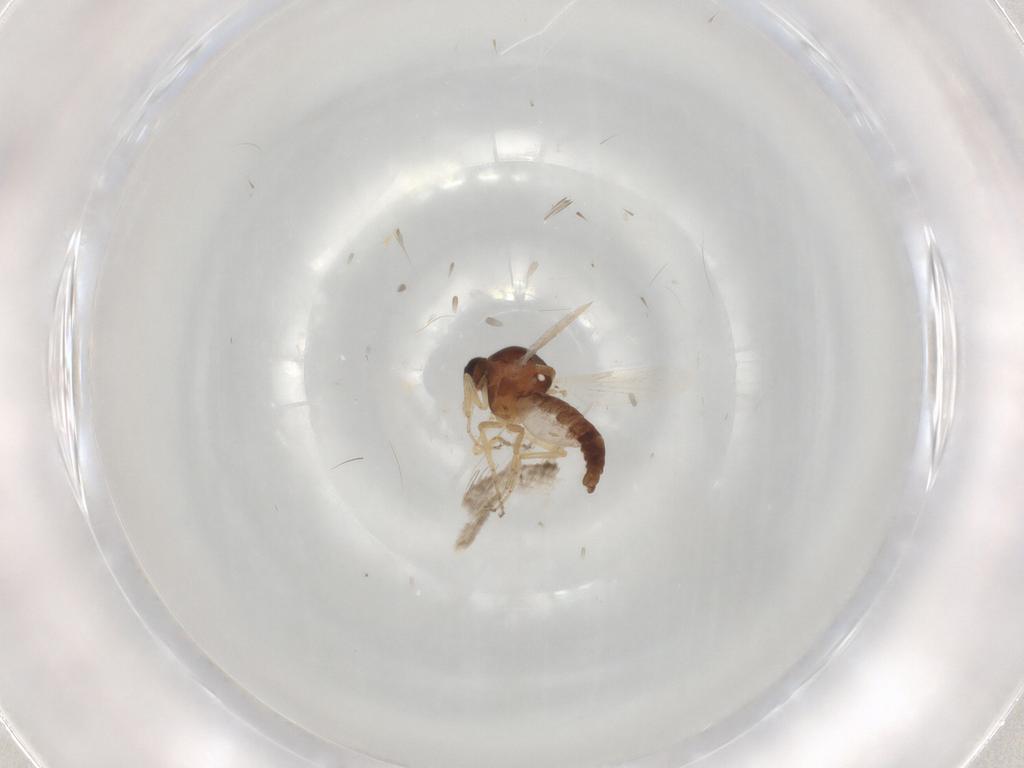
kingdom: Animalia
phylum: Arthropoda
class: Insecta
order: Diptera
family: Ceratopogonidae
